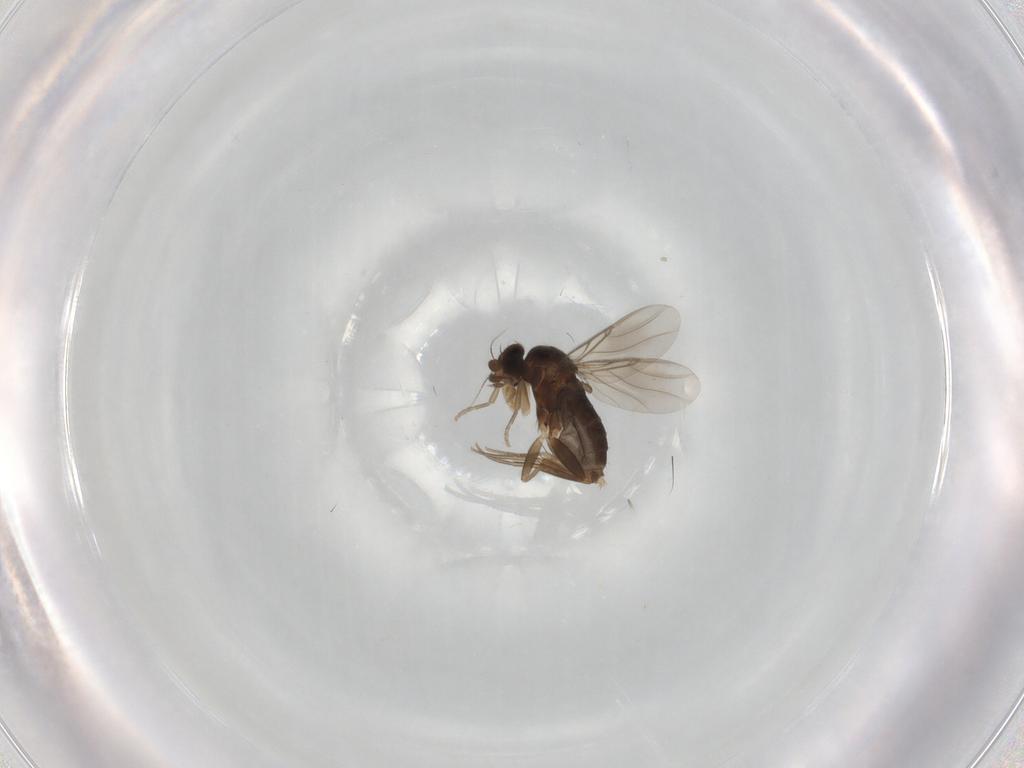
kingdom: Animalia
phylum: Arthropoda
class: Insecta
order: Diptera
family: Phoridae
